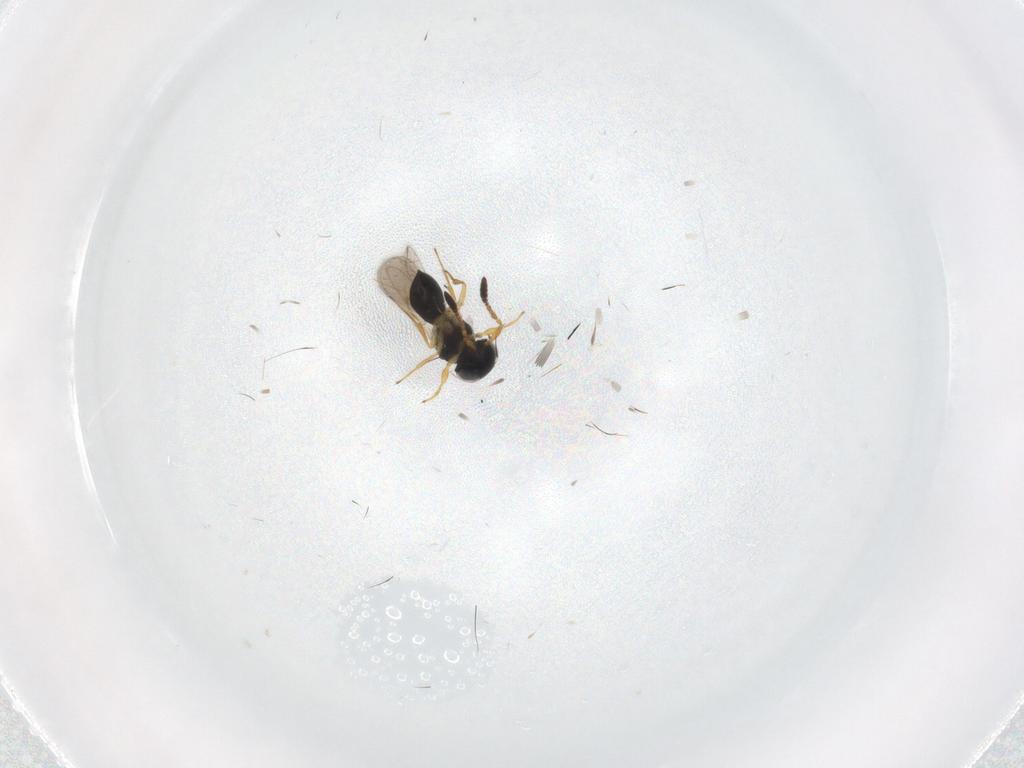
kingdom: Animalia
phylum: Arthropoda
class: Insecta
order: Hymenoptera
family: Scelionidae
